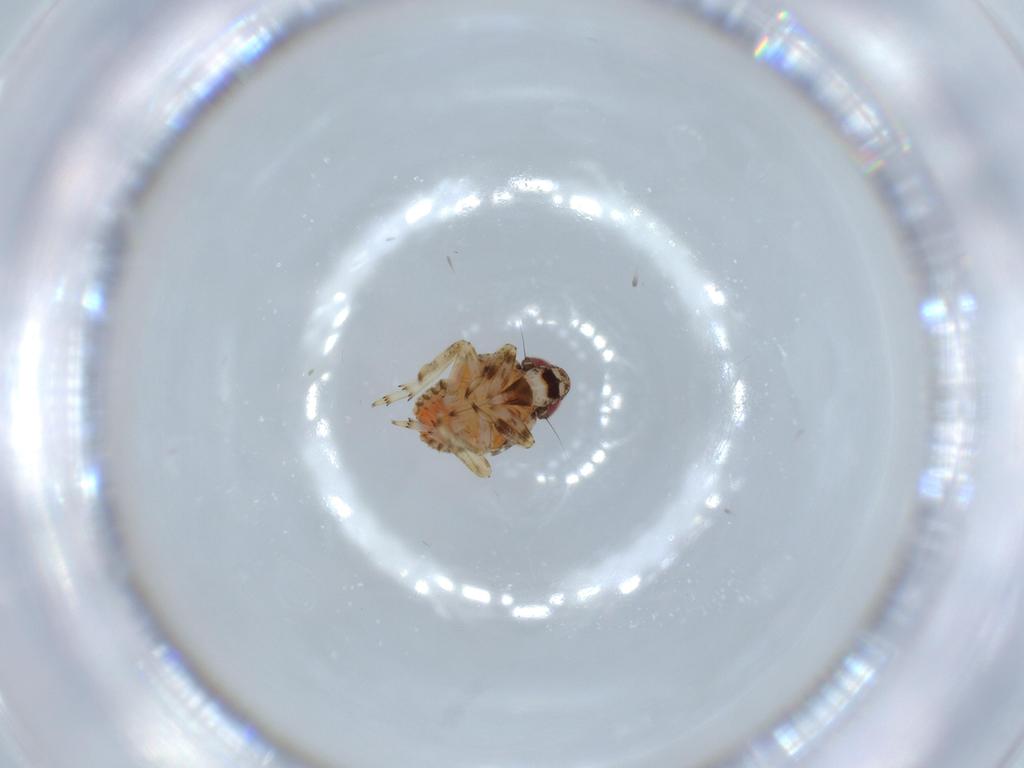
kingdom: Animalia
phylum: Arthropoda
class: Insecta
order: Hemiptera
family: Issidae
